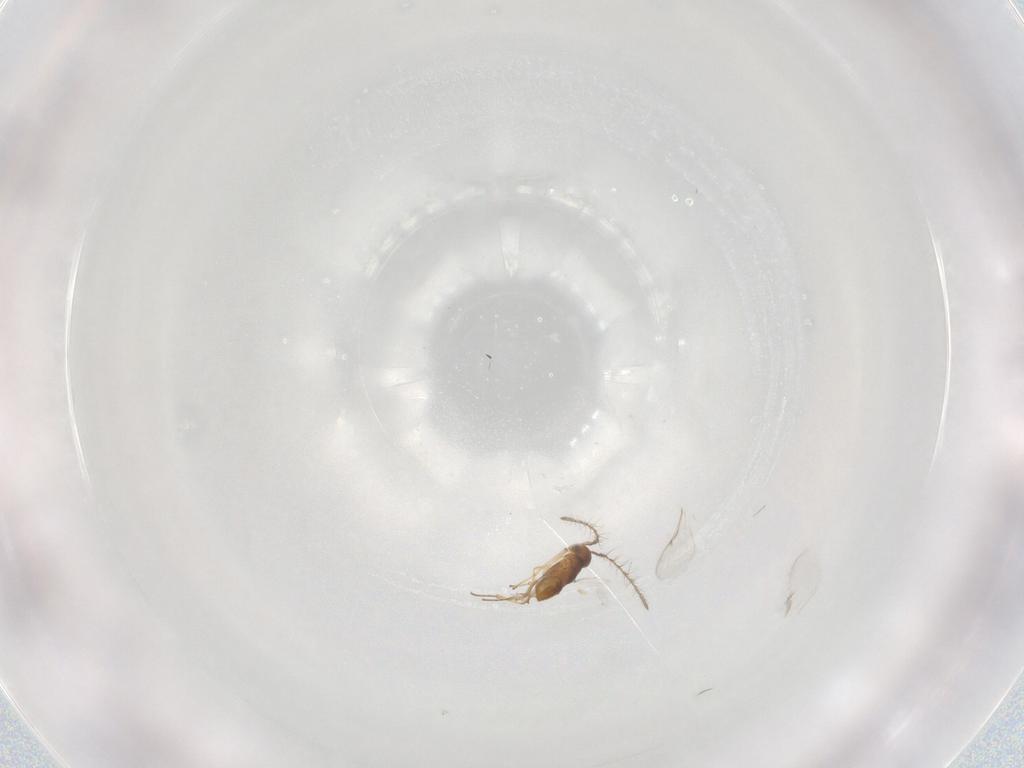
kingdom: Animalia
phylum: Arthropoda
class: Insecta
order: Hymenoptera
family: Encyrtidae
